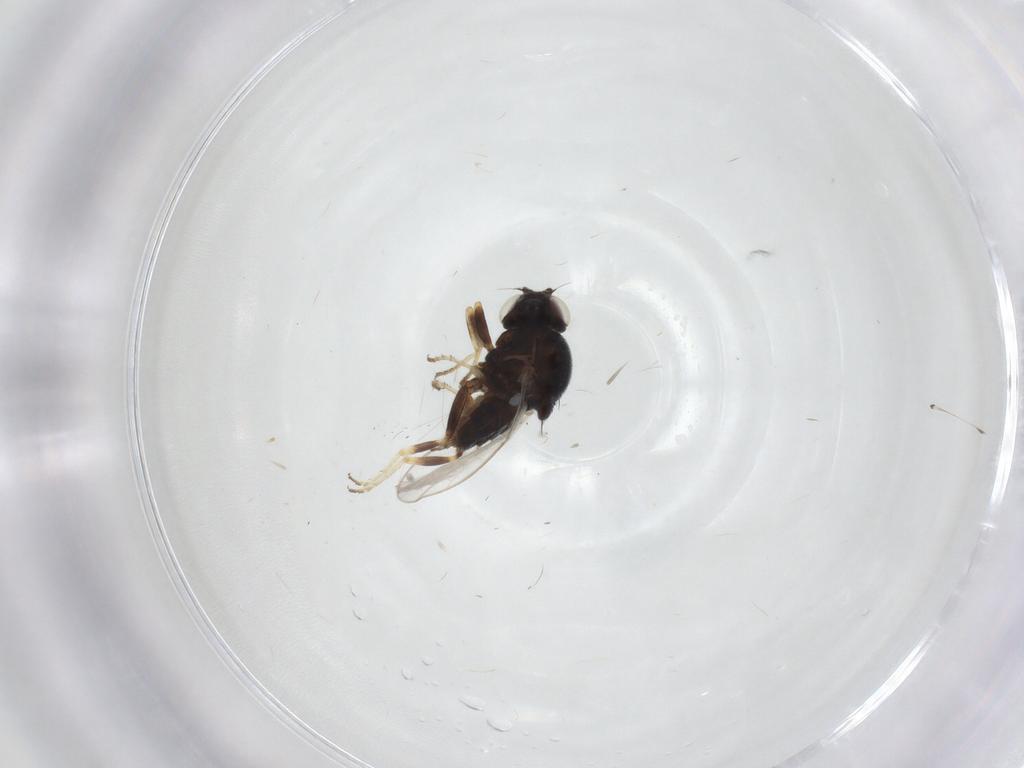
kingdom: Animalia
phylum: Arthropoda
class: Insecta
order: Diptera
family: Chloropidae
